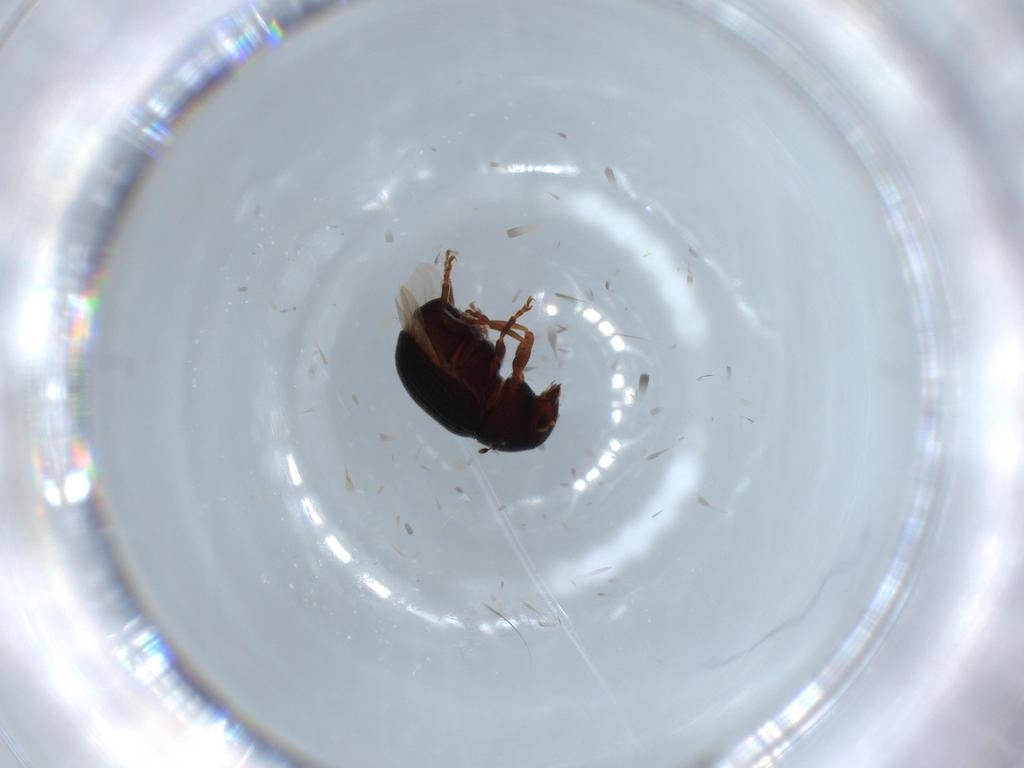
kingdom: Animalia
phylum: Arthropoda
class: Insecta
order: Coleoptera
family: Anthribidae
